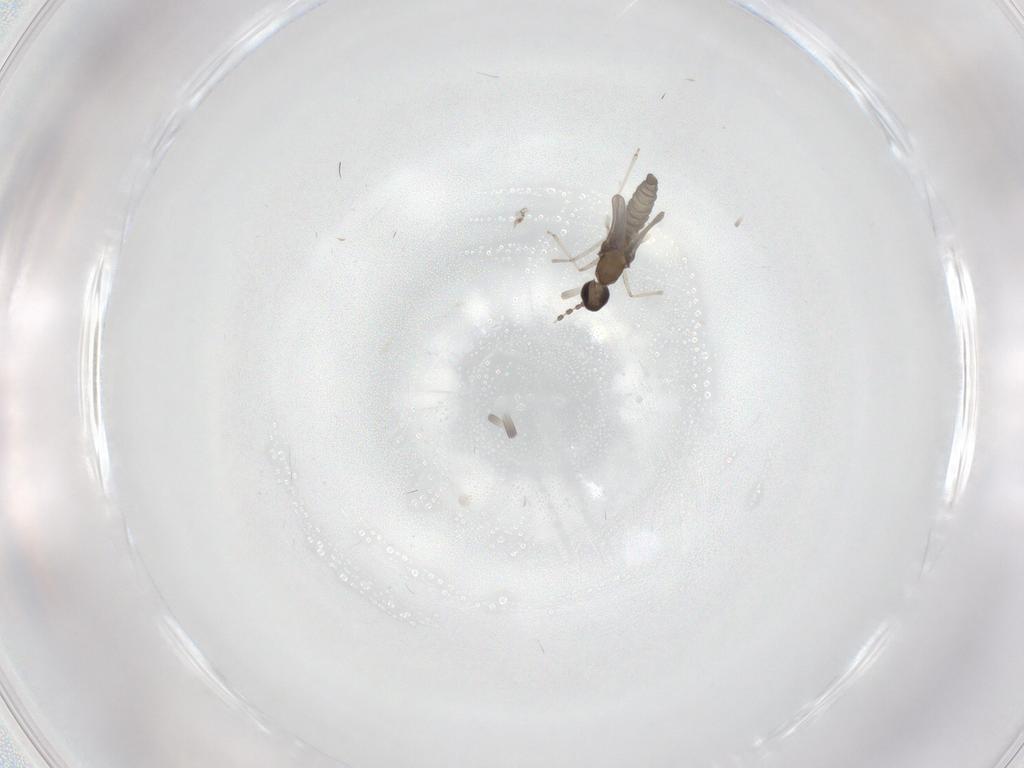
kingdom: Animalia
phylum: Arthropoda
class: Insecta
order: Diptera
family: Cecidomyiidae
